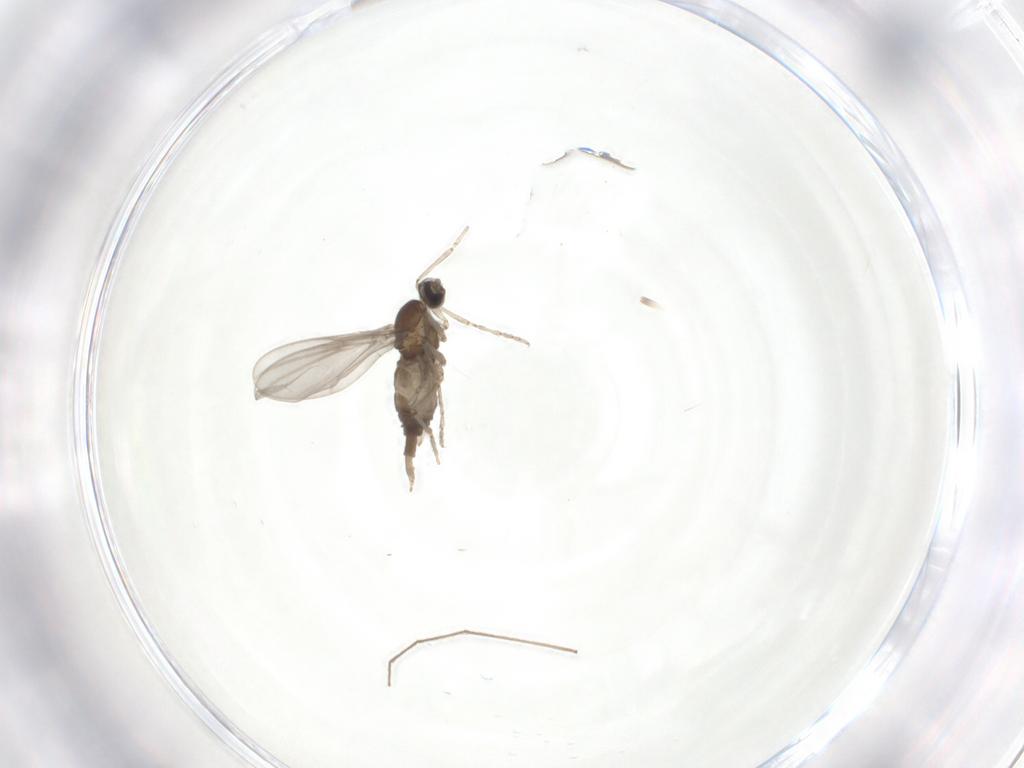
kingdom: Animalia
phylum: Arthropoda
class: Insecta
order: Diptera
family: Cecidomyiidae
